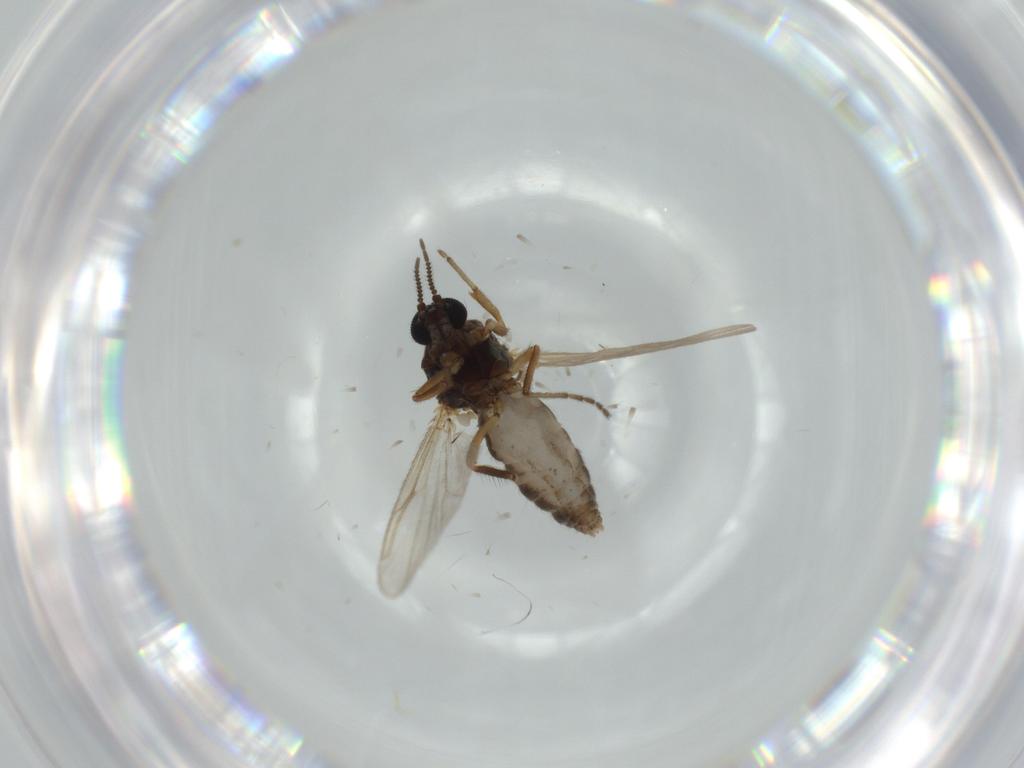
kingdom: Animalia
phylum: Arthropoda
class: Insecta
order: Diptera
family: Ceratopogonidae
